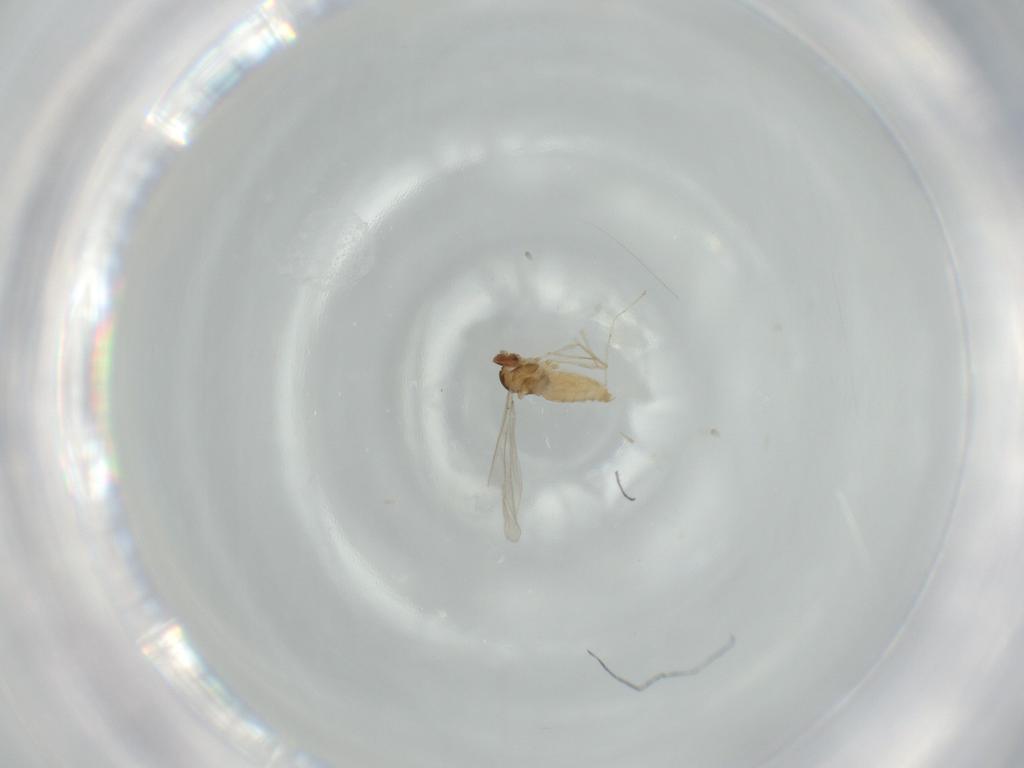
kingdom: Animalia
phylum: Arthropoda
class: Insecta
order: Diptera
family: Cecidomyiidae
